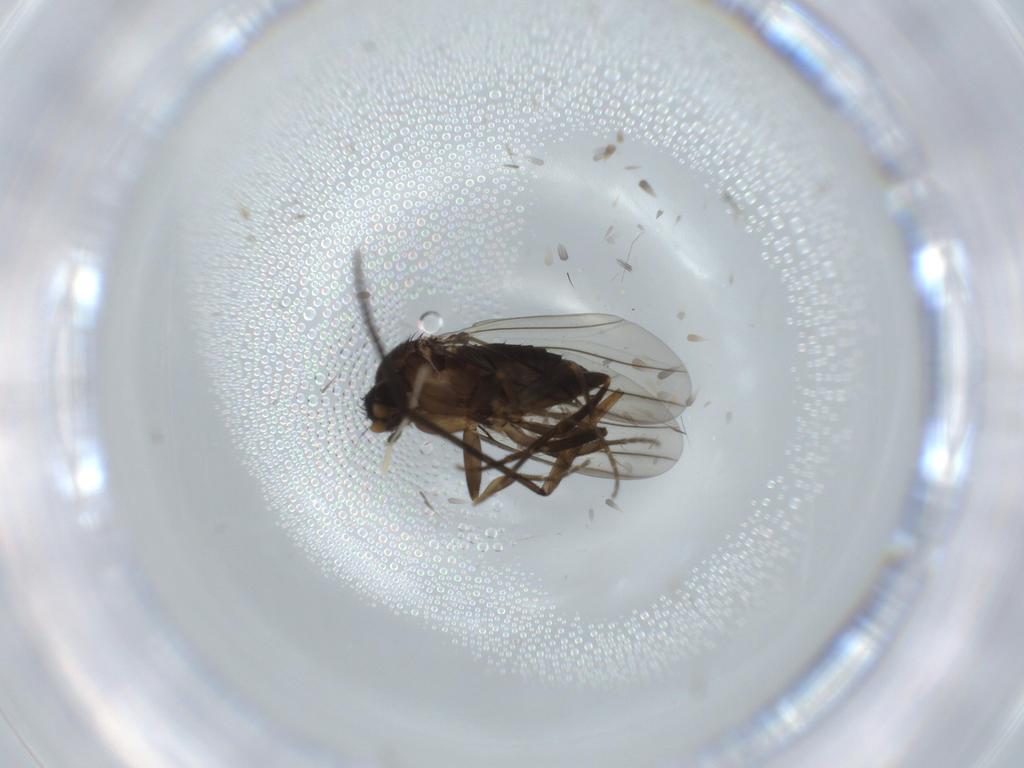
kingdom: Animalia
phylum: Arthropoda
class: Insecta
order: Diptera
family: Sciaridae
